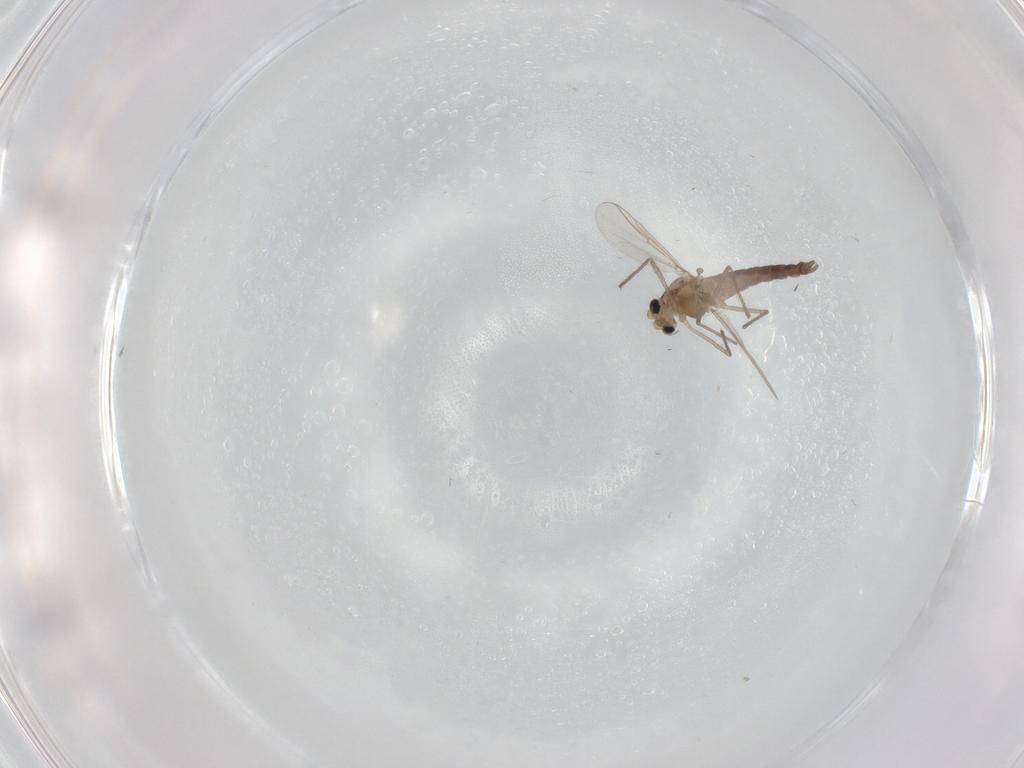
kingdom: Animalia
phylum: Arthropoda
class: Insecta
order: Diptera
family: Chironomidae
